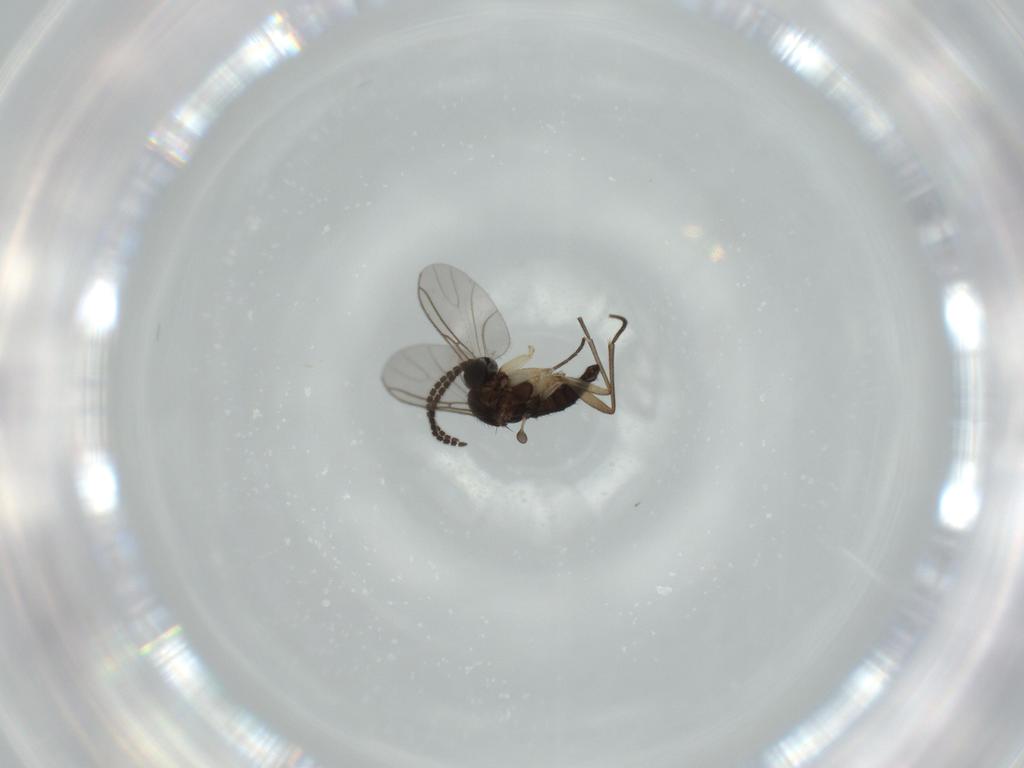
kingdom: Animalia
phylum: Arthropoda
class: Insecta
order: Diptera
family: Sciaridae
